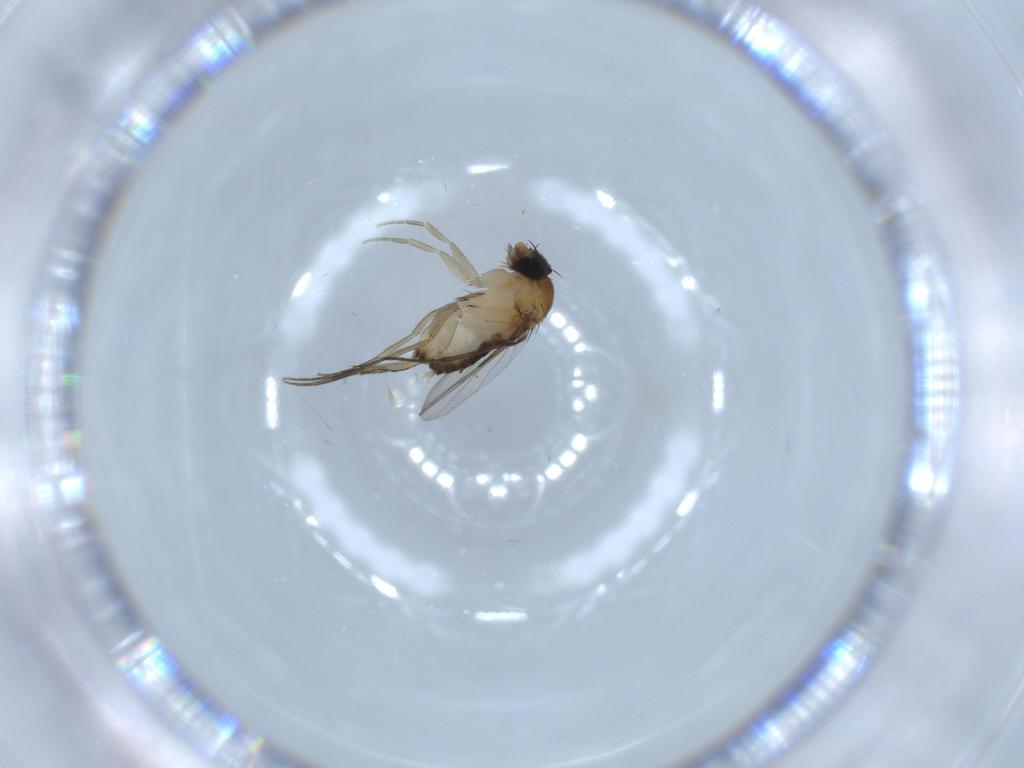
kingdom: Animalia
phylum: Arthropoda
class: Insecta
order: Diptera
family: Phoridae
